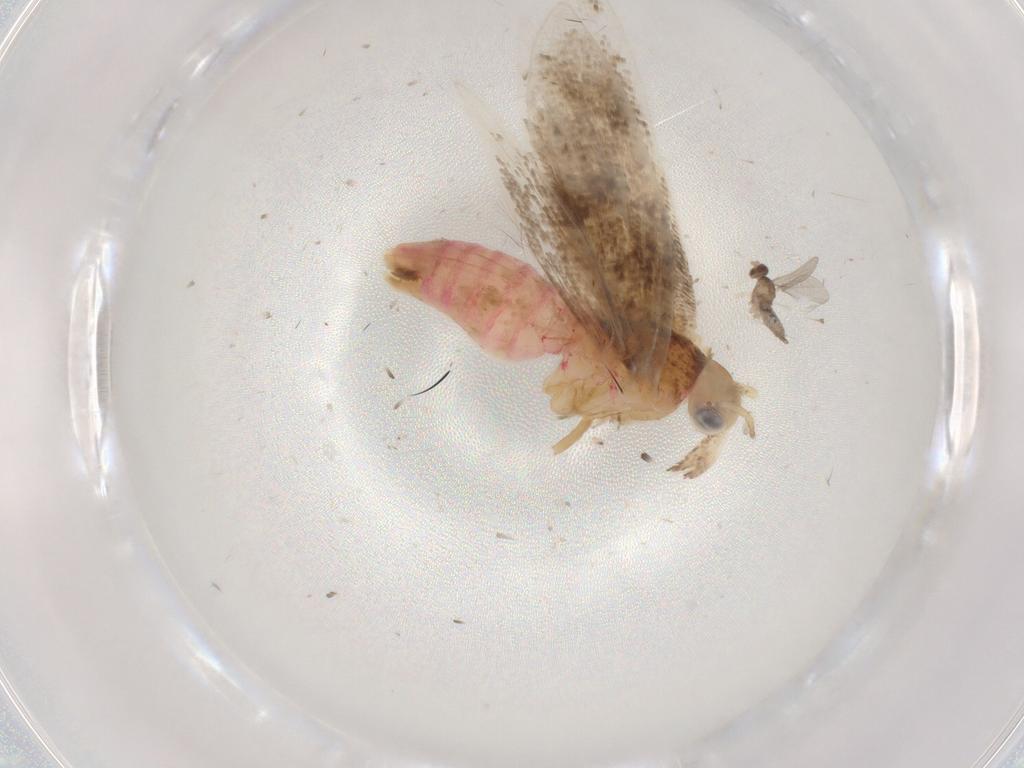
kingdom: Animalia
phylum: Arthropoda
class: Insecta
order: Lepidoptera
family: Plutellidae
